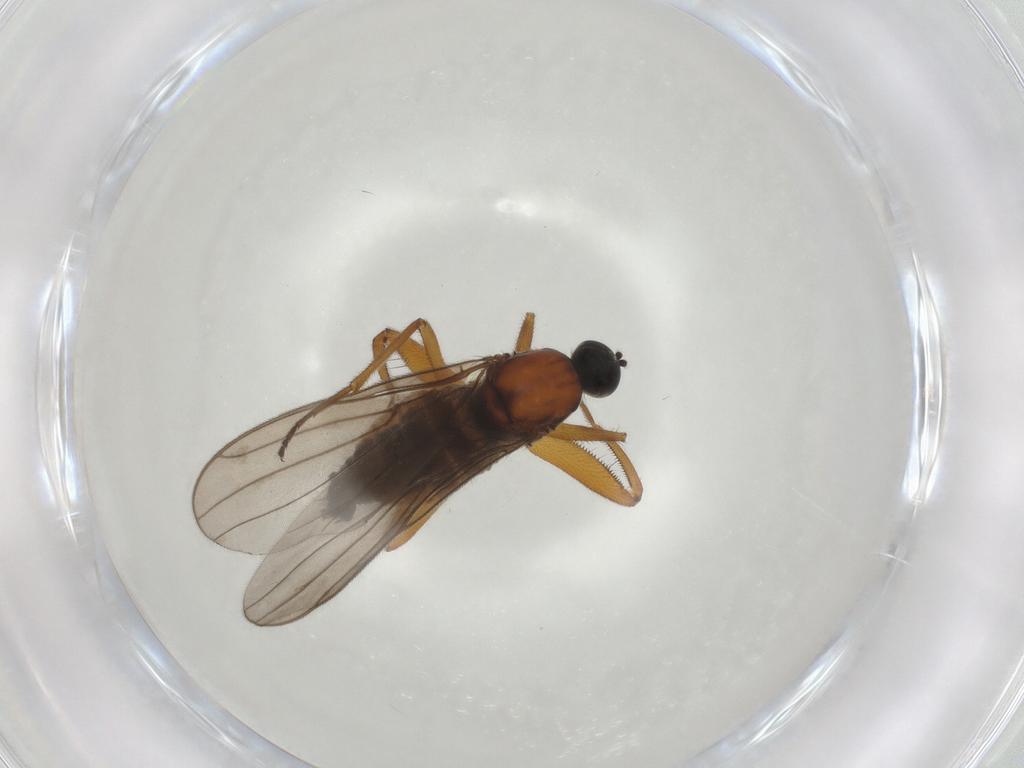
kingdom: Animalia
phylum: Arthropoda
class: Insecta
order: Diptera
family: Hybotidae
